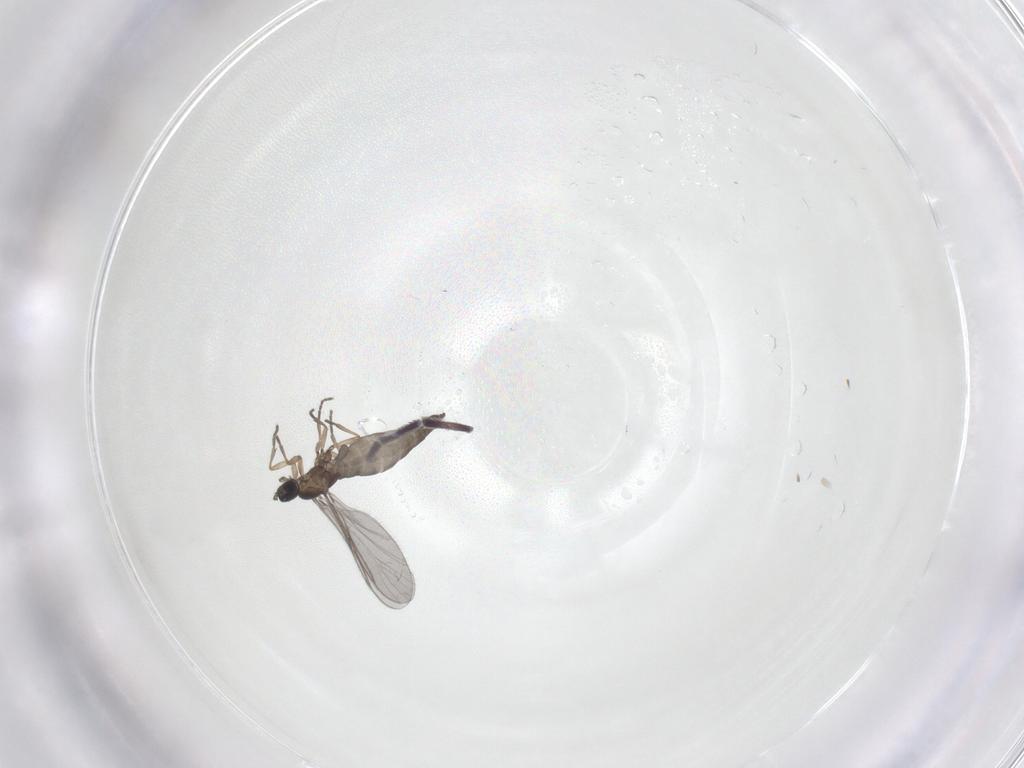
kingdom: Animalia
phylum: Arthropoda
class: Insecta
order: Diptera
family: Sciaridae
